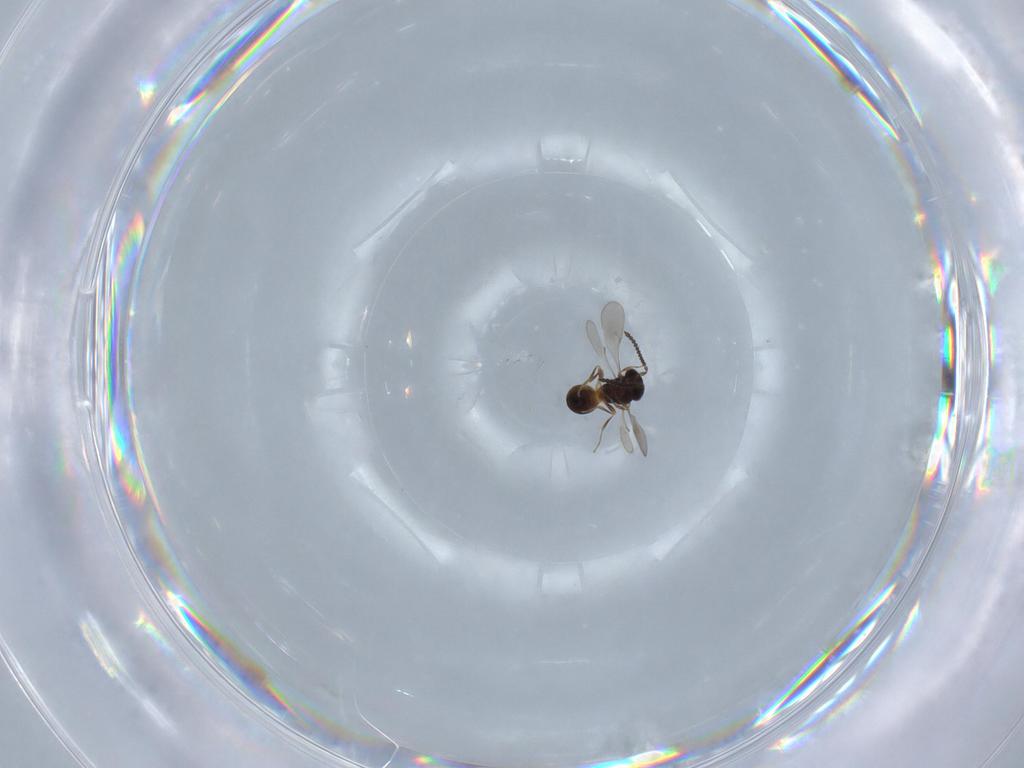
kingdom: Animalia
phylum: Arthropoda
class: Insecta
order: Hymenoptera
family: Scelionidae
